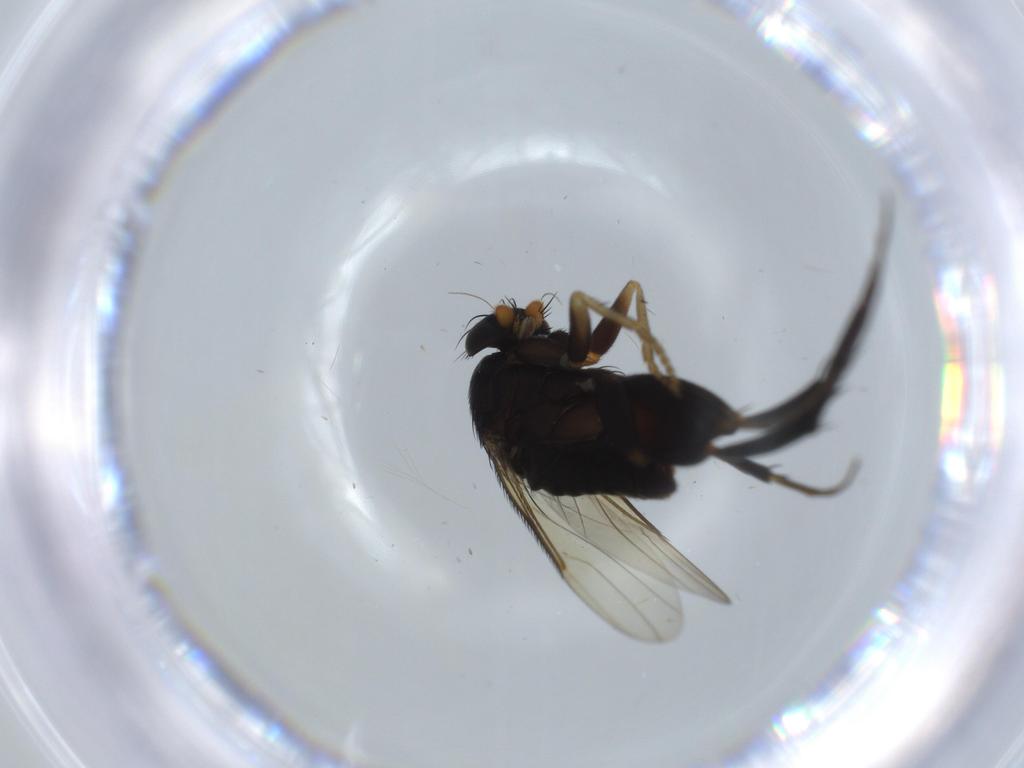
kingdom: Animalia
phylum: Arthropoda
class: Insecta
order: Diptera
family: Phoridae
